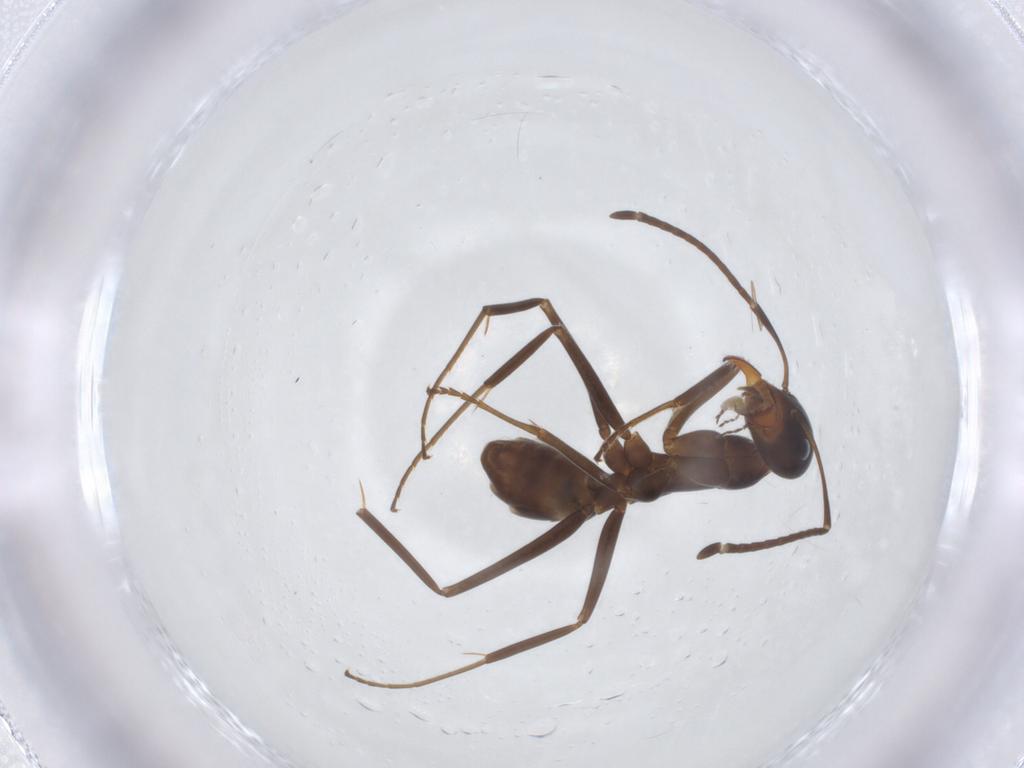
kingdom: Animalia
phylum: Arthropoda
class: Insecta
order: Hymenoptera
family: Formicidae
